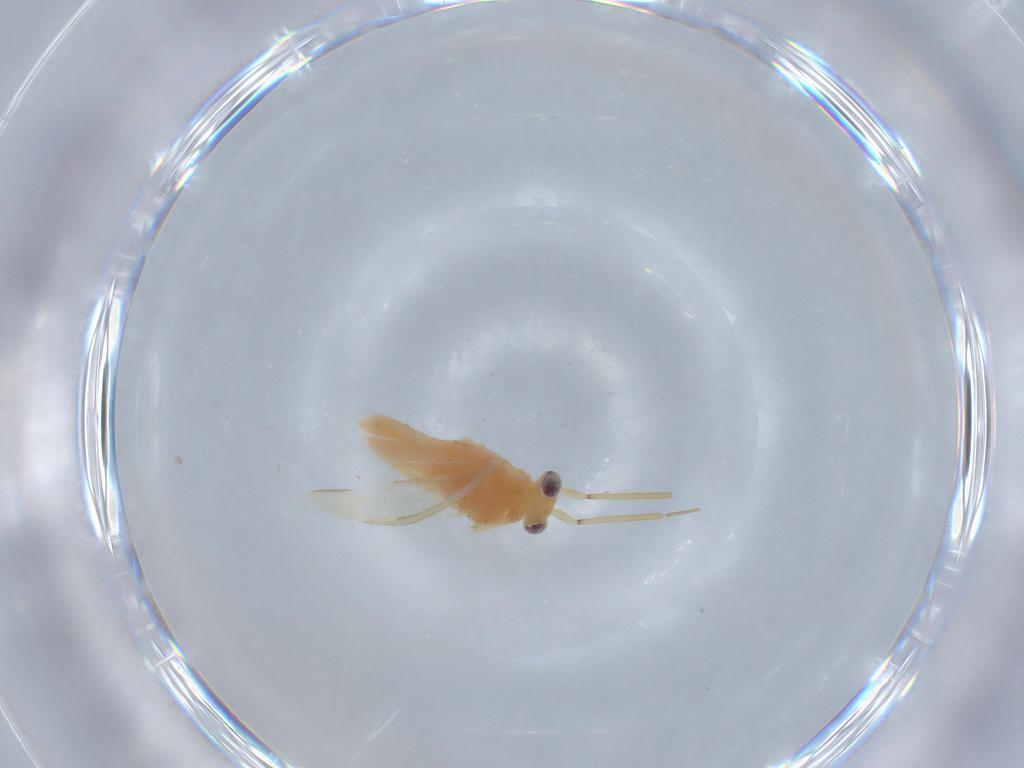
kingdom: Animalia
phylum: Arthropoda
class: Insecta
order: Hemiptera
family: Miridae
